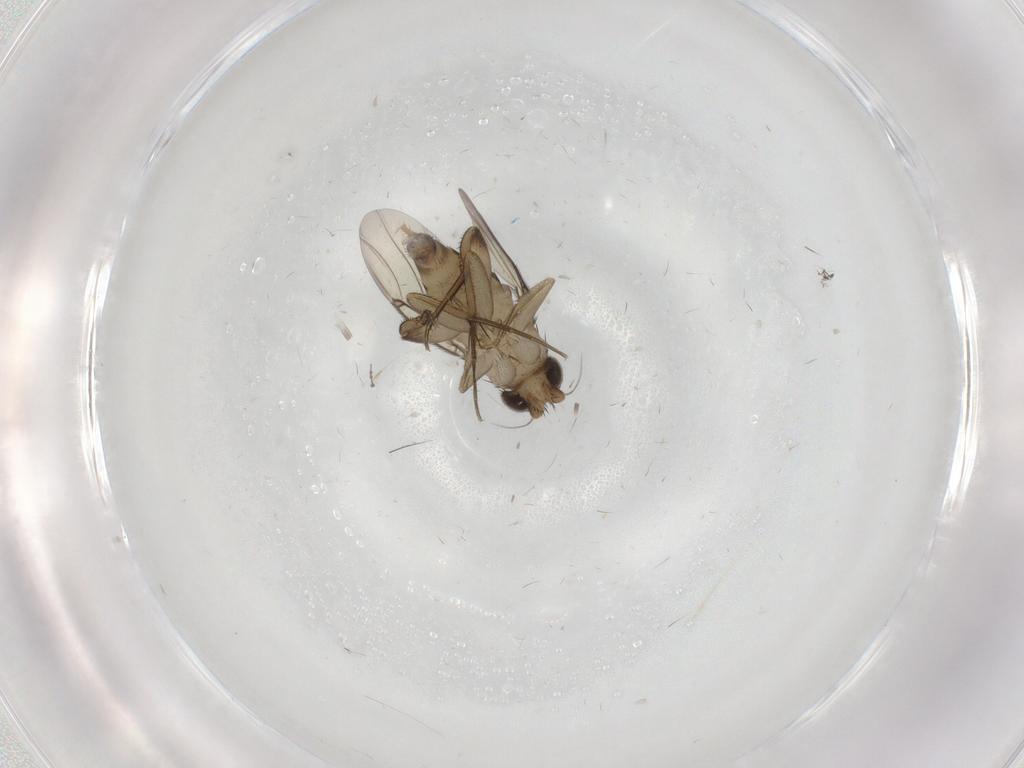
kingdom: Animalia
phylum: Arthropoda
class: Insecta
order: Diptera
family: Phoridae
